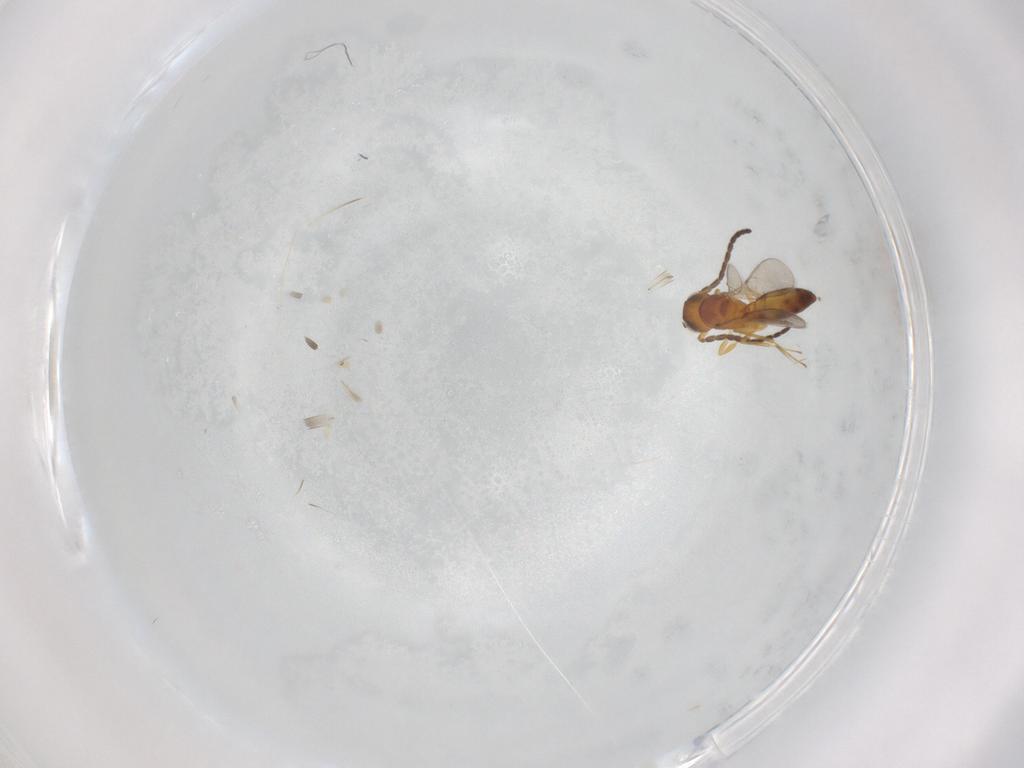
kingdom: Animalia
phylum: Arthropoda
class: Insecta
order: Hymenoptera
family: Scelionidae
